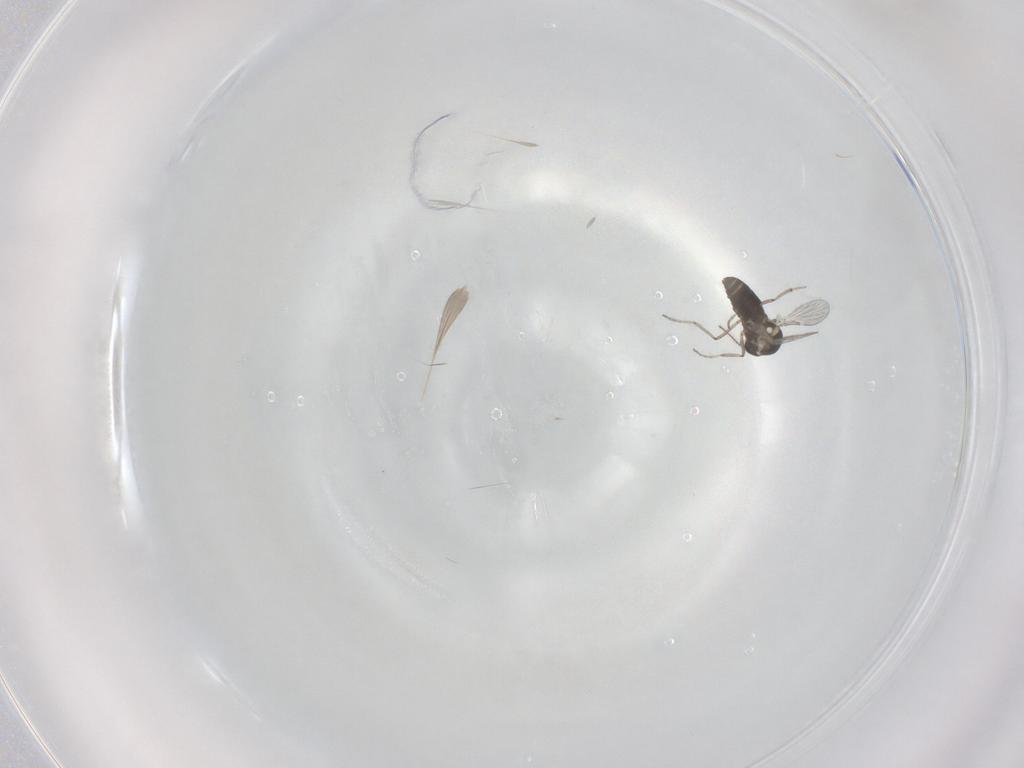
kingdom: Animalia
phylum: Arthropoda
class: Insecta
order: Diptera
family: Ceratopogonidae
